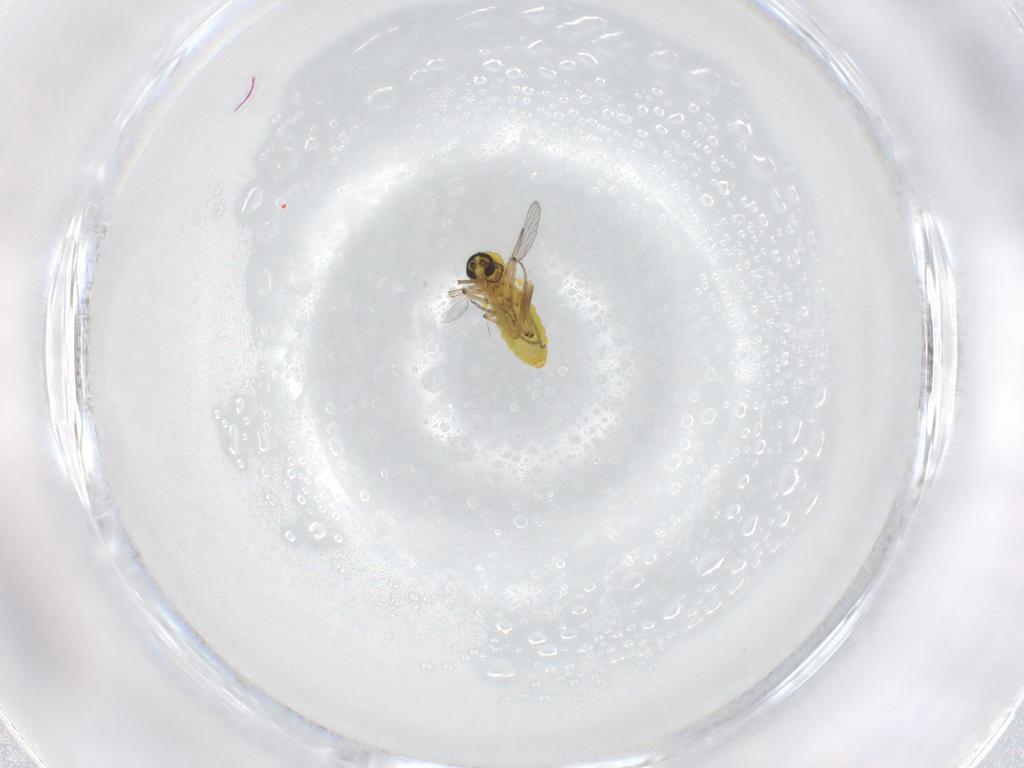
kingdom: Animalia
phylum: Arthropoda
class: Insecta
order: Diptera
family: Ceratopogonidae
